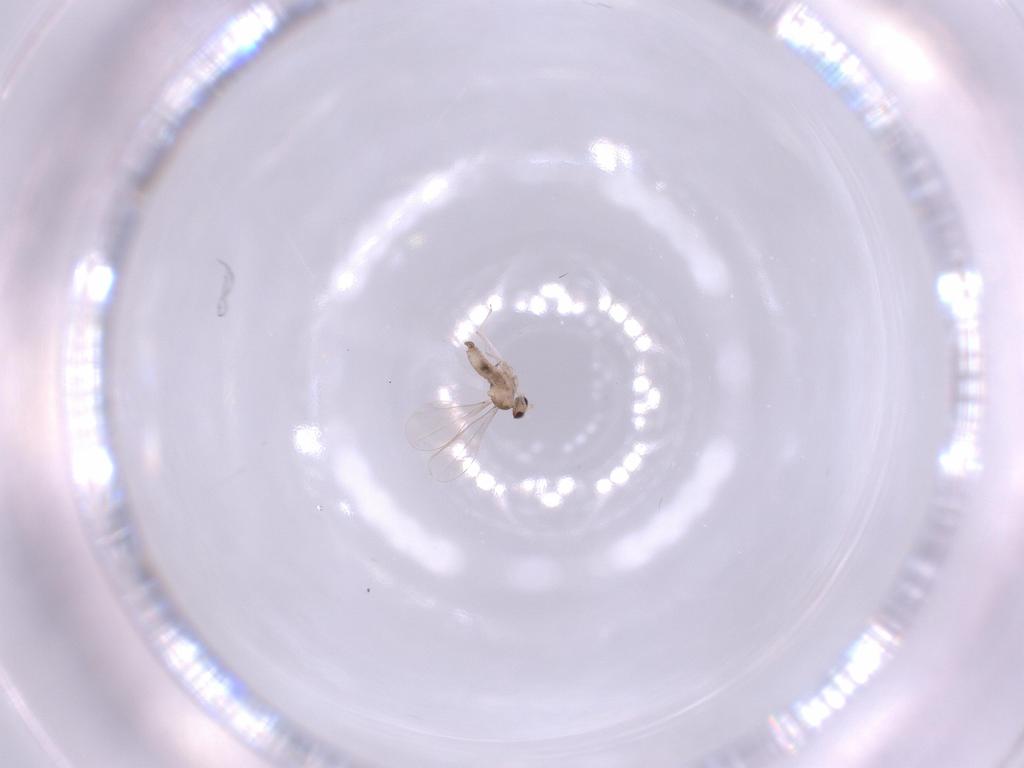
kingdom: Animalia
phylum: Arthropoda
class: Insecta
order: Diptera
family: Cecidomyiidae
